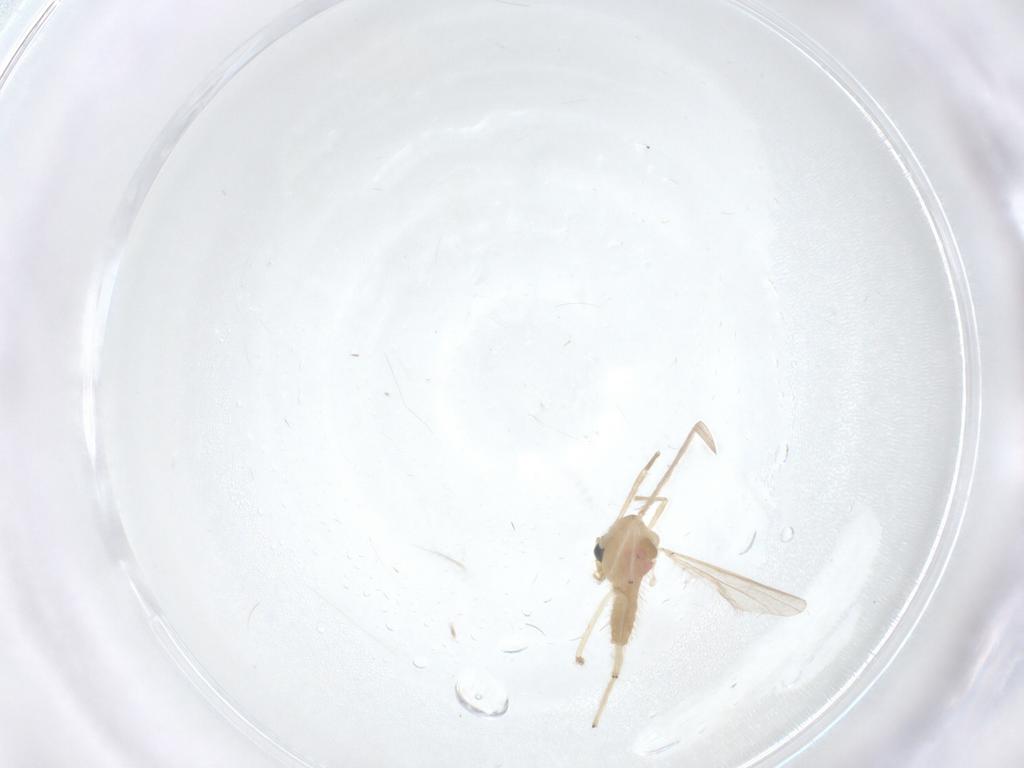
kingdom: Animalia
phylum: Arthropoda
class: Insecta
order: Diptera
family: Chironomidae
